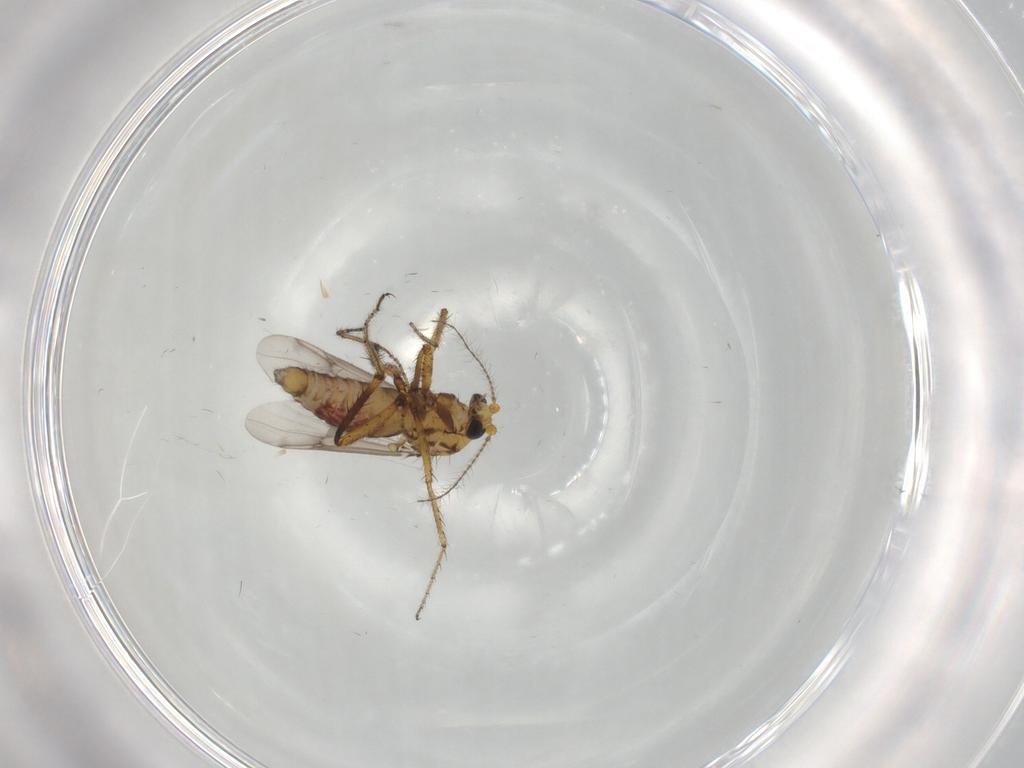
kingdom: Animalia
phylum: Arthropoda
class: Insecta
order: Diptera
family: Ceratopogonidae
